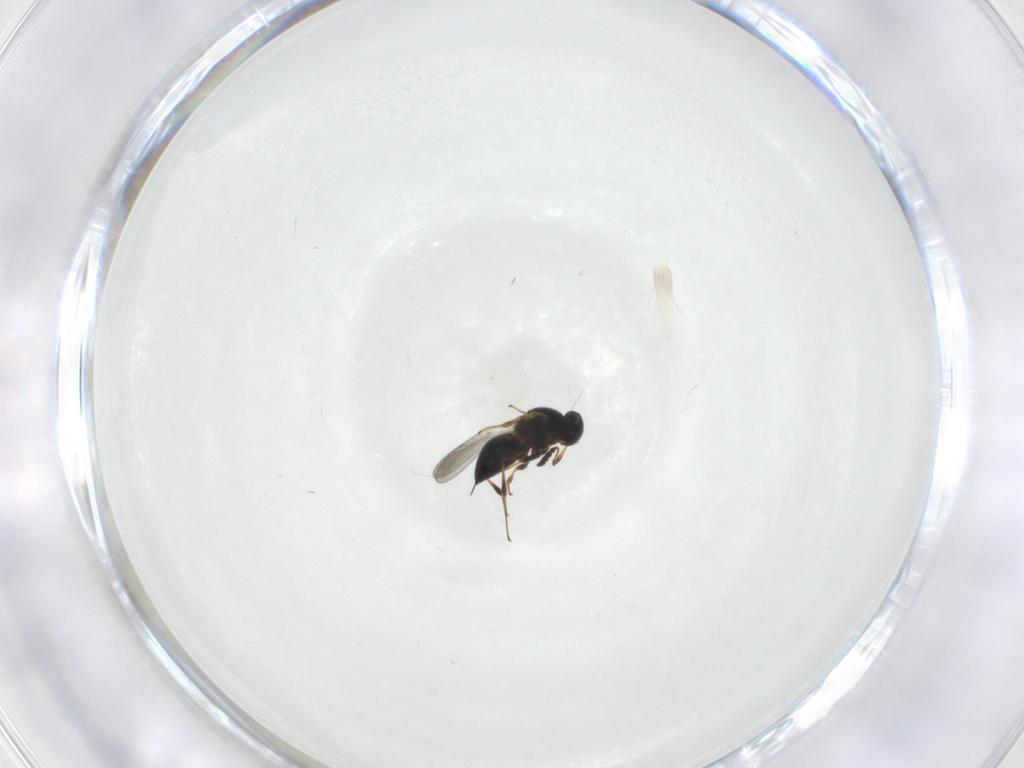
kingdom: Animalia
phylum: Arthropoda
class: Insecta
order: Hymenoptera
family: Platygastridae
